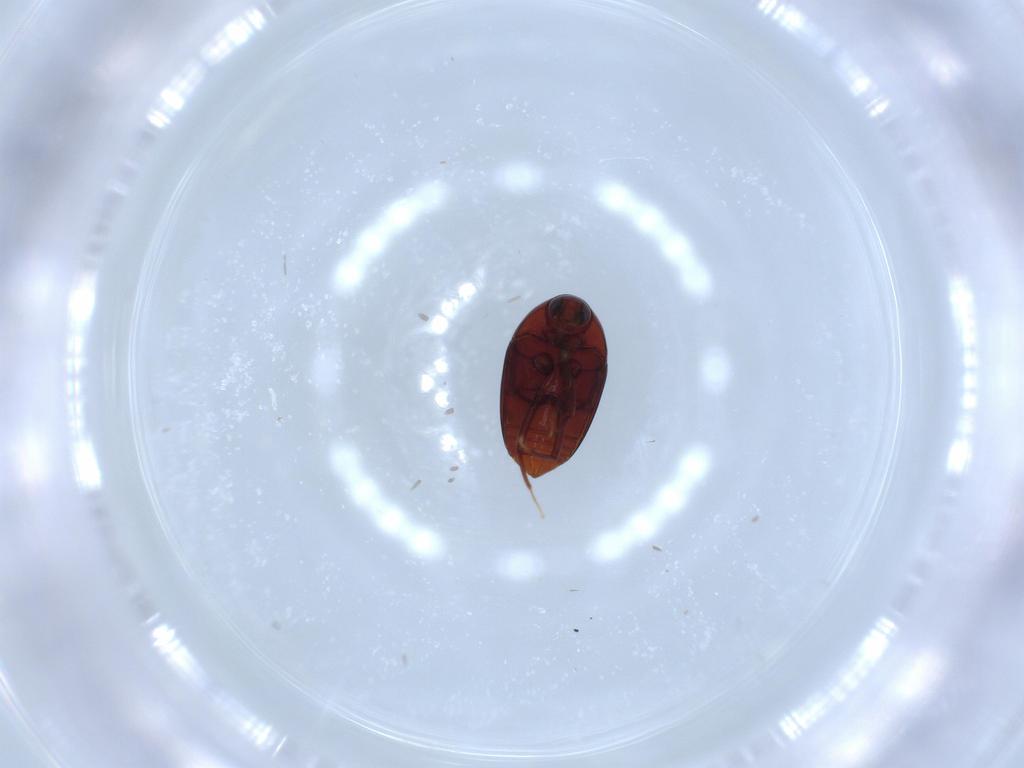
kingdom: Animalia
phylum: Arthropoda
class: Insecta
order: Coleoptera
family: Staphylinidae
